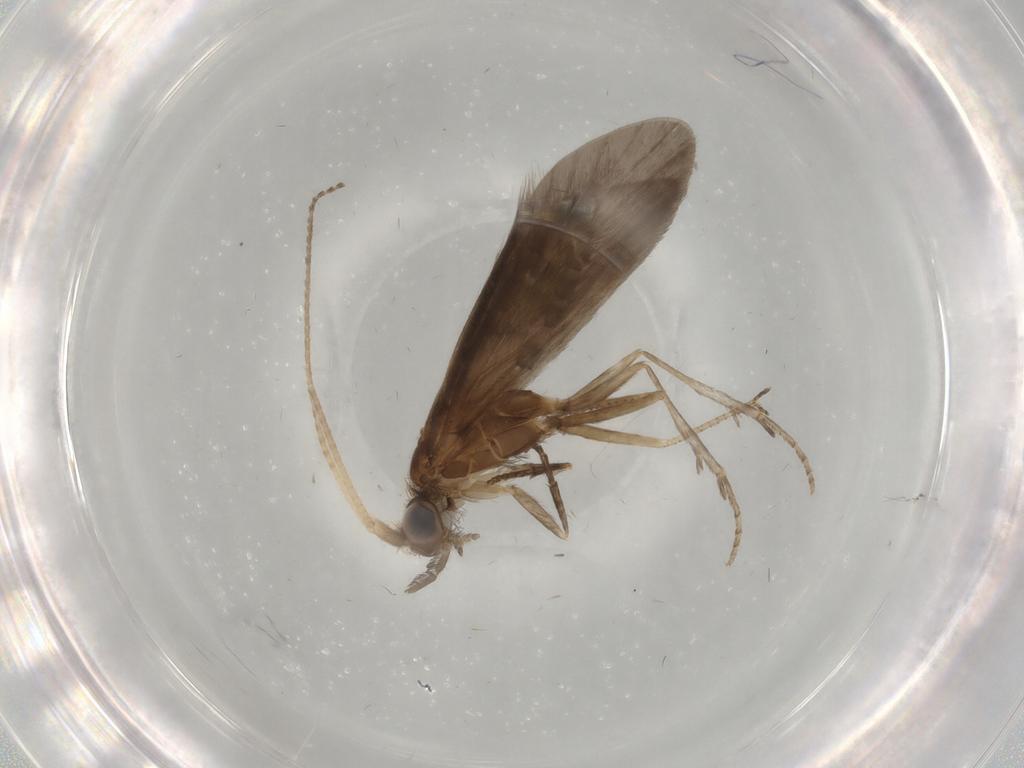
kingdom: Animalia
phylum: Arthropoda
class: Insecta
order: Trichoptera
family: Helicopsychidae
